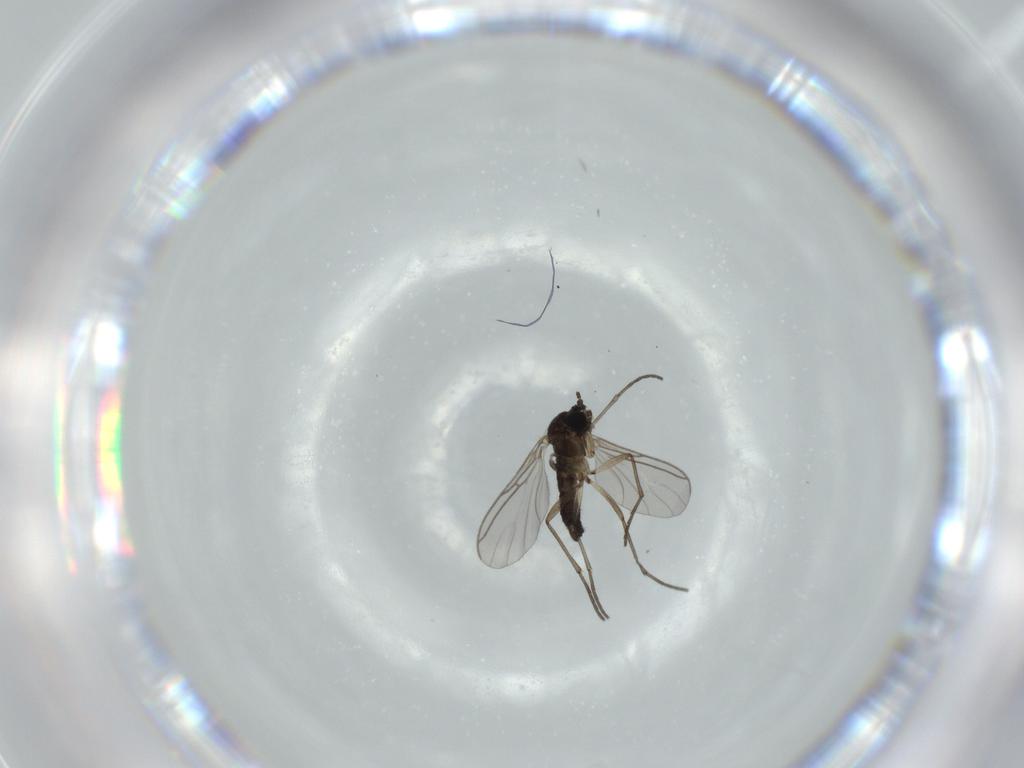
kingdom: Animalia
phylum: Arthropoda
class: Insecta
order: Diptera
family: Sciaridae
